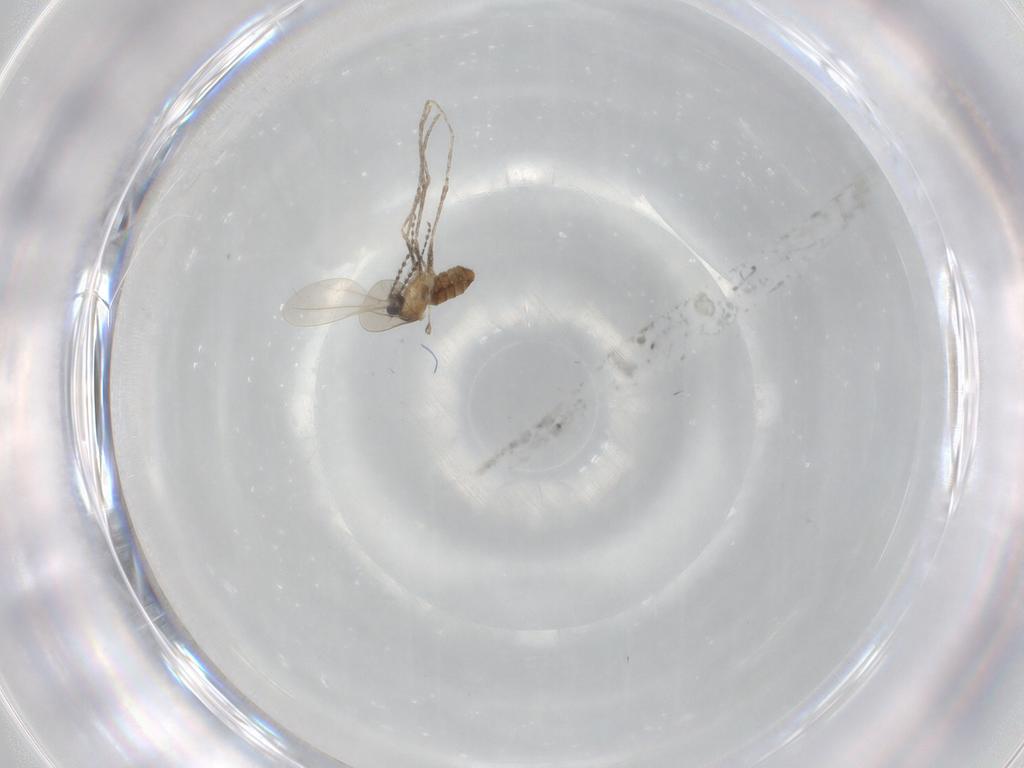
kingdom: Animalia
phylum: Arthropoda
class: Insecta
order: Diptera
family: Cecidomyiidae
